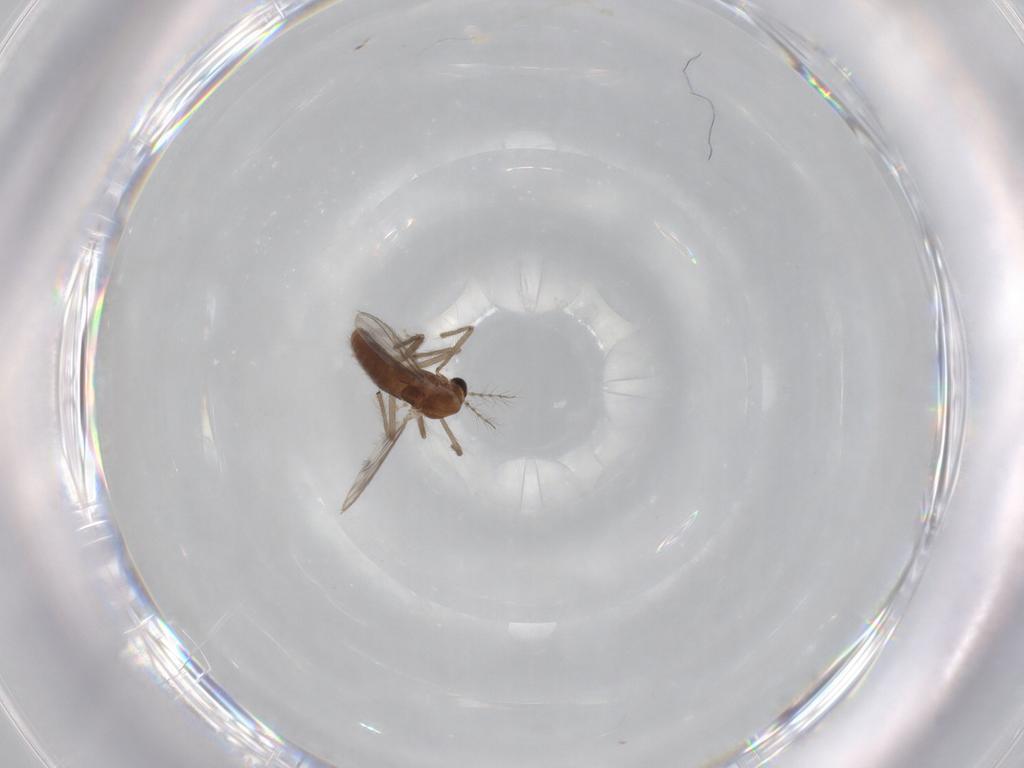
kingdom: Animalia
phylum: Arthropoda
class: Insecta
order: Diptera
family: Chironomidae
